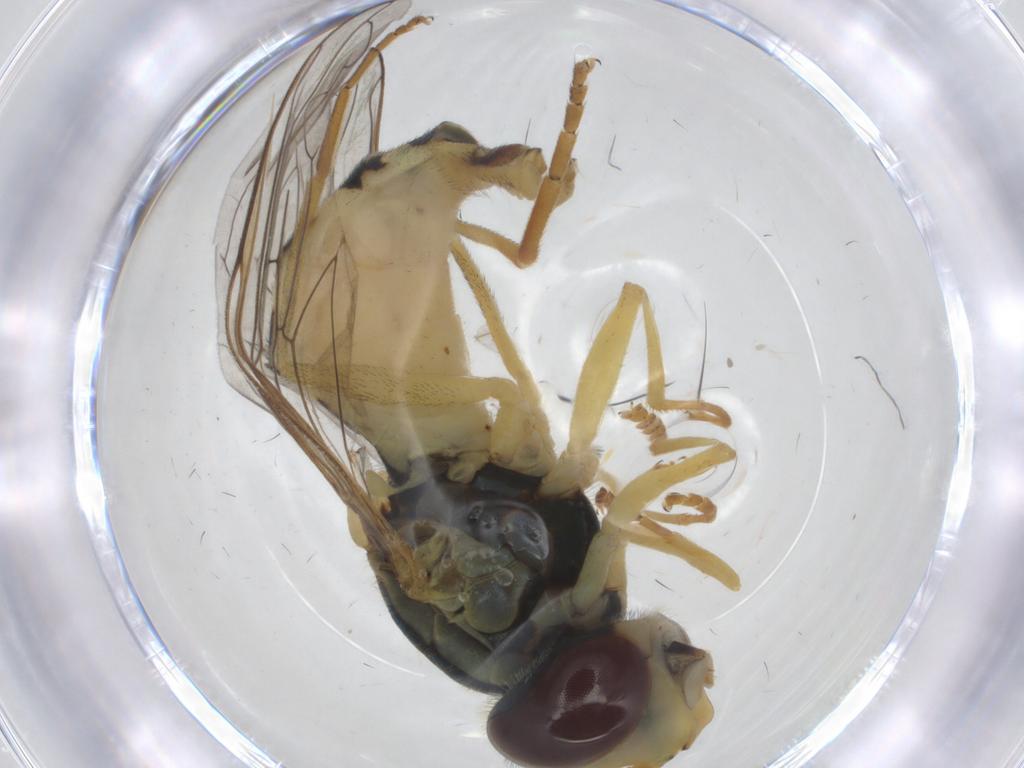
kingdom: Animalia
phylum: Arthropoda
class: Insecta
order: Diptera
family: Syrphidae
